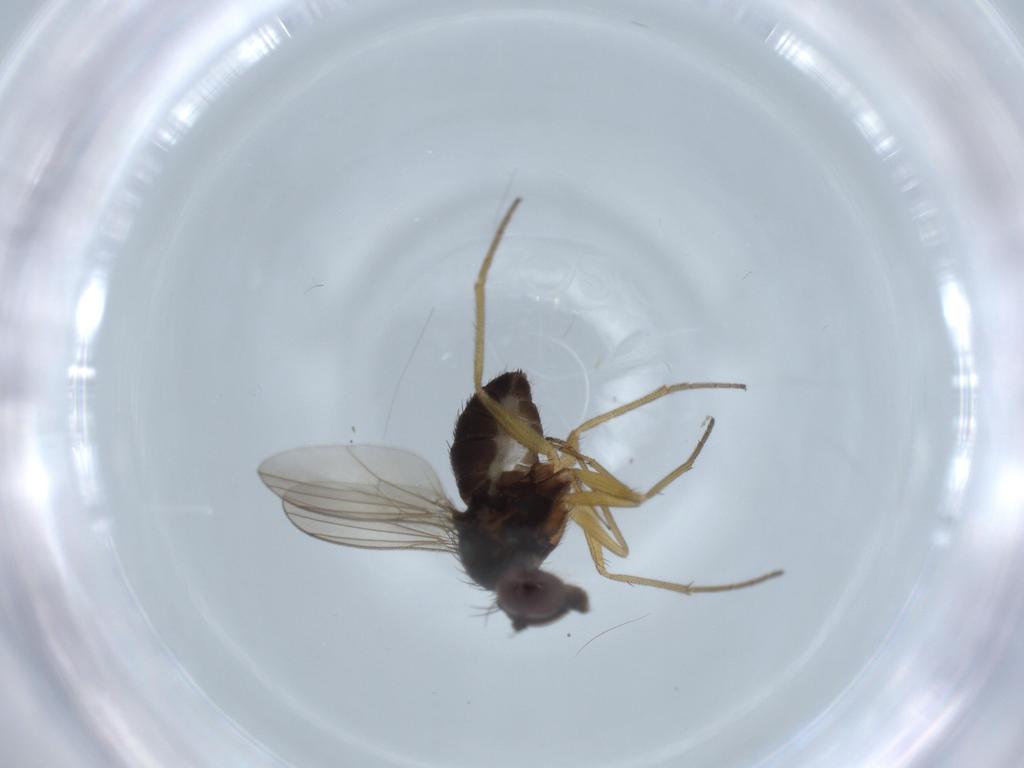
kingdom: Animalia
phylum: Arthropoda
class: Insecta
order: Diptera
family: Dolichopodidae
